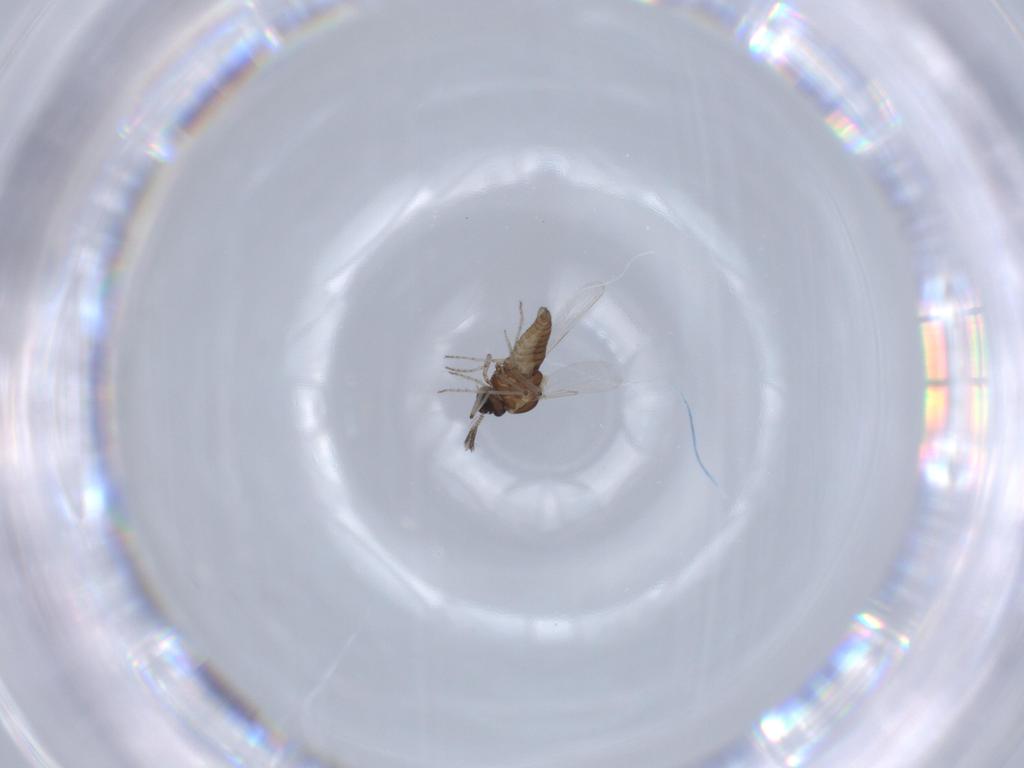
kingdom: Animalia
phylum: Arthropoda
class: Insecta
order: Diptera
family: Ceratopogonidae
